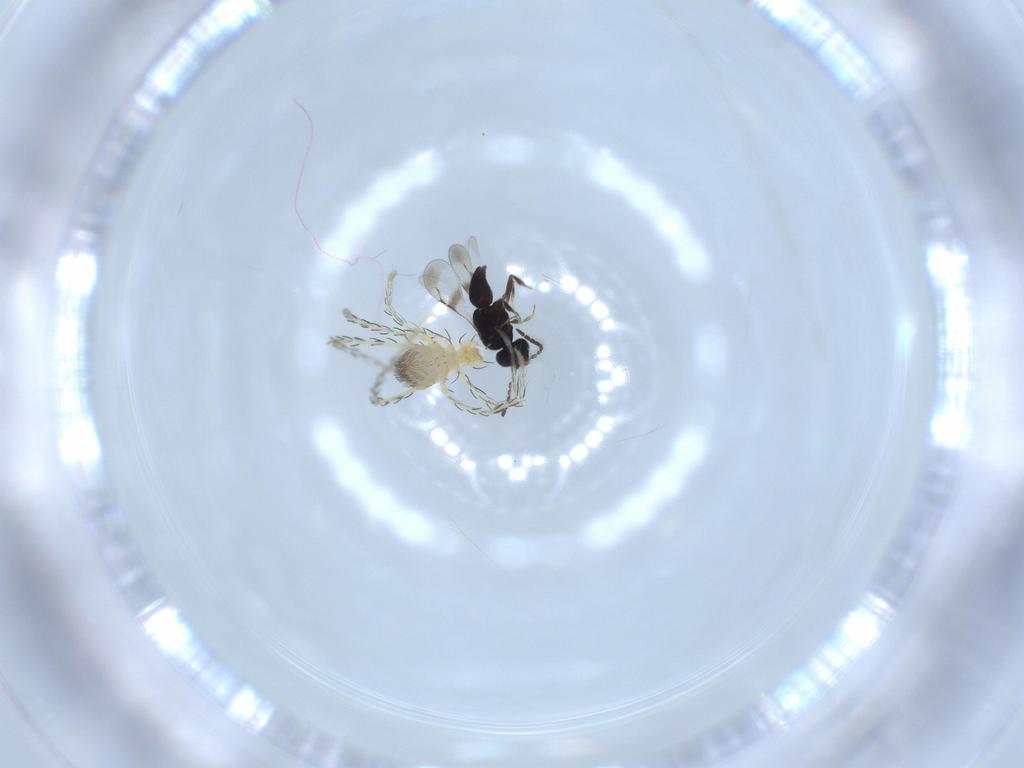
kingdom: Animalia
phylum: Arthropoda
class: Arachnida
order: Trombidiformes
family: Erythraeidae
